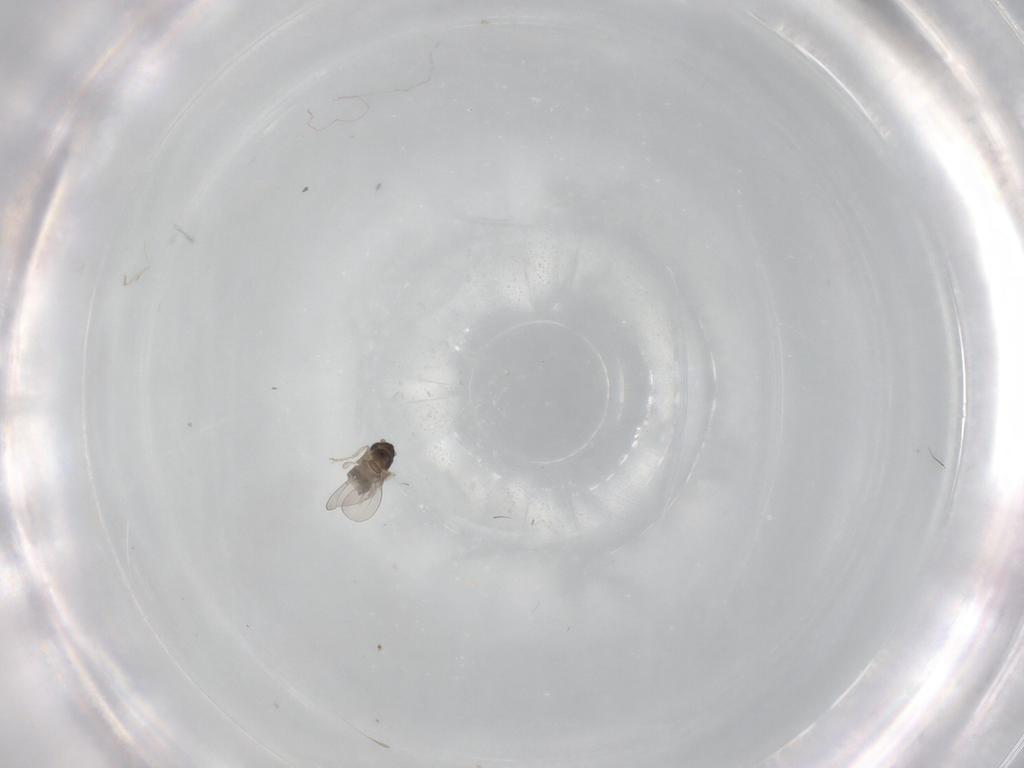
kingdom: Animalia
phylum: Arthropoda
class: Insecta
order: Diptera
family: Cecidomyiidae
